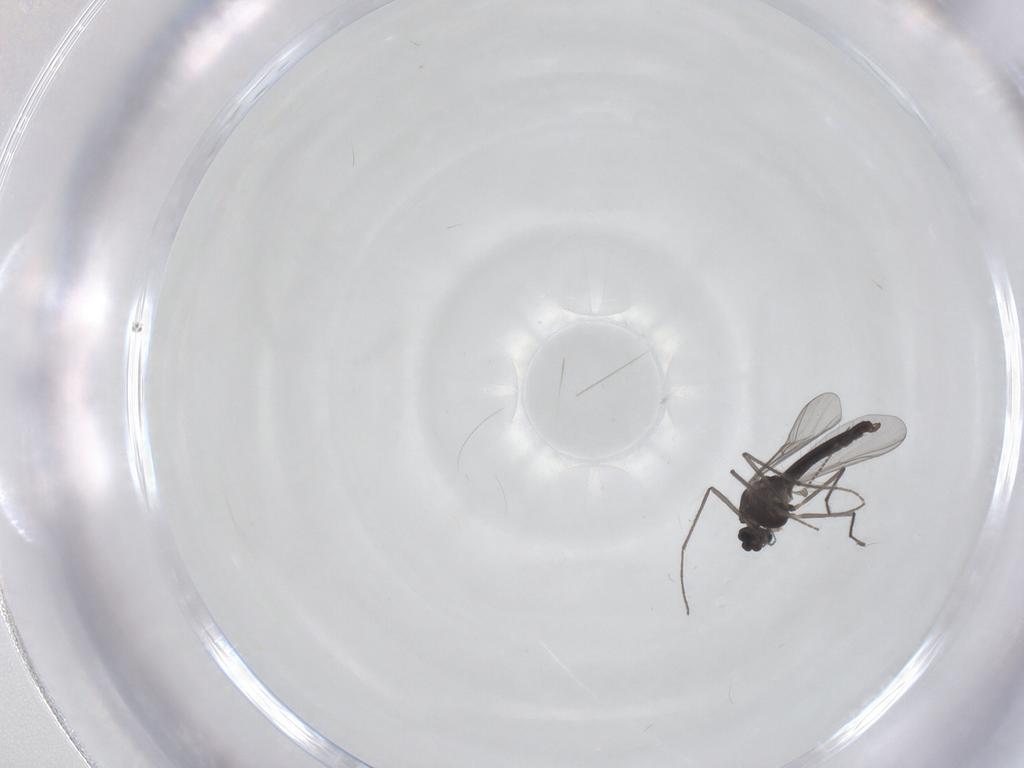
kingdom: Animalia
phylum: Arthropoda
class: Insecta
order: Diptera
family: Chironomidae
